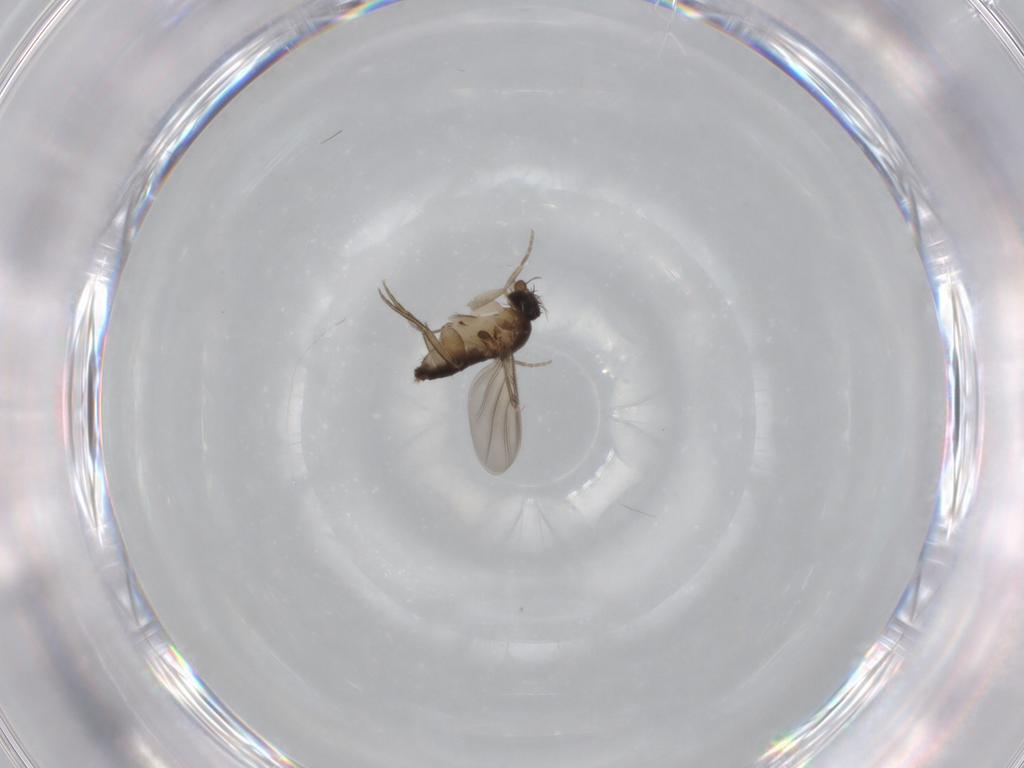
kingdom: Animalia
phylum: Arthropoda
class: Insecta
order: Diptera
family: Phoridae
